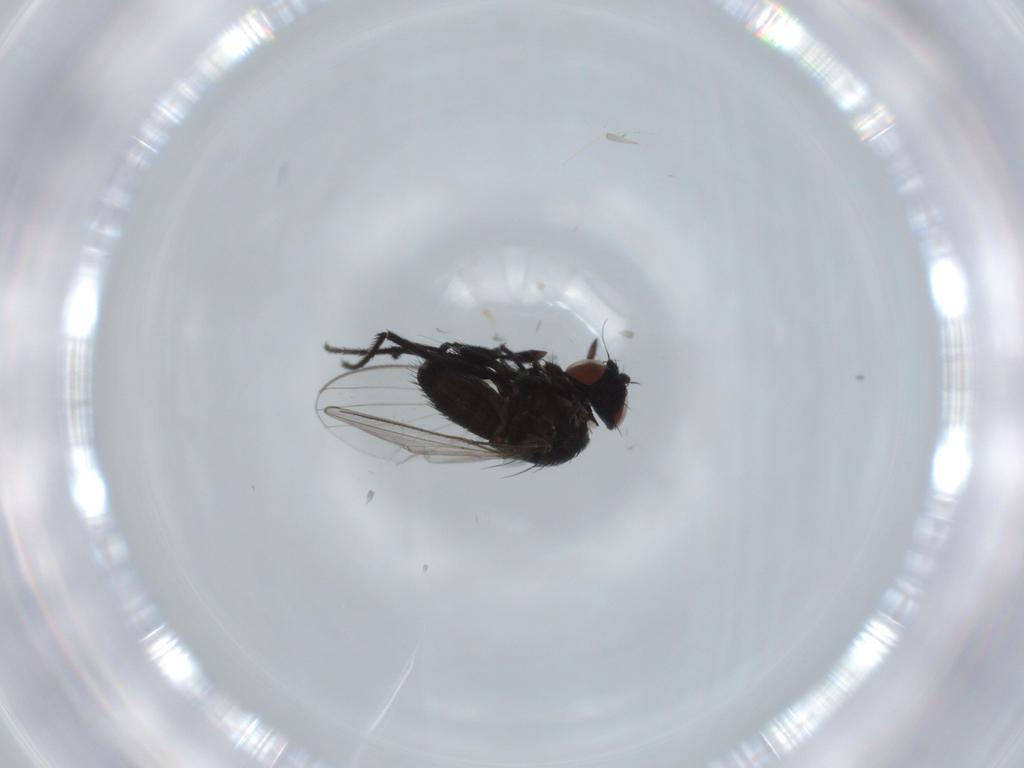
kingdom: Animalia
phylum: Arthropoda
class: Insecta
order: Diptera
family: Milichiidae
